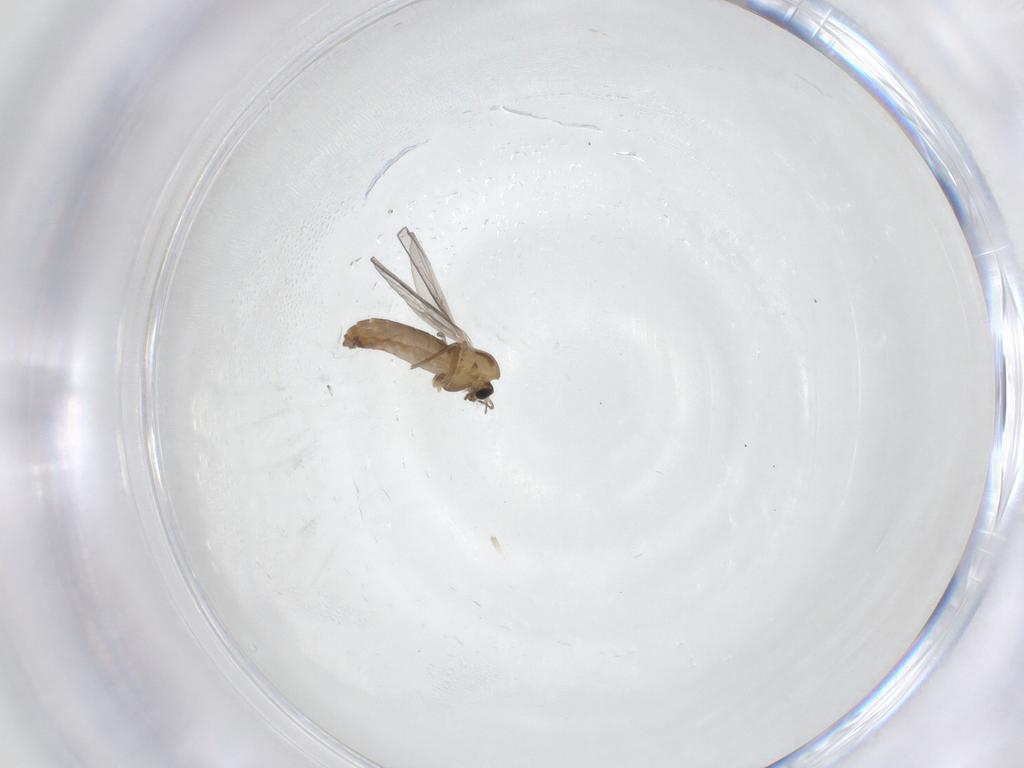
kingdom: Animalia
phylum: Arthropoda
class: Insecta
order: Diptera
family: Chironomidae
